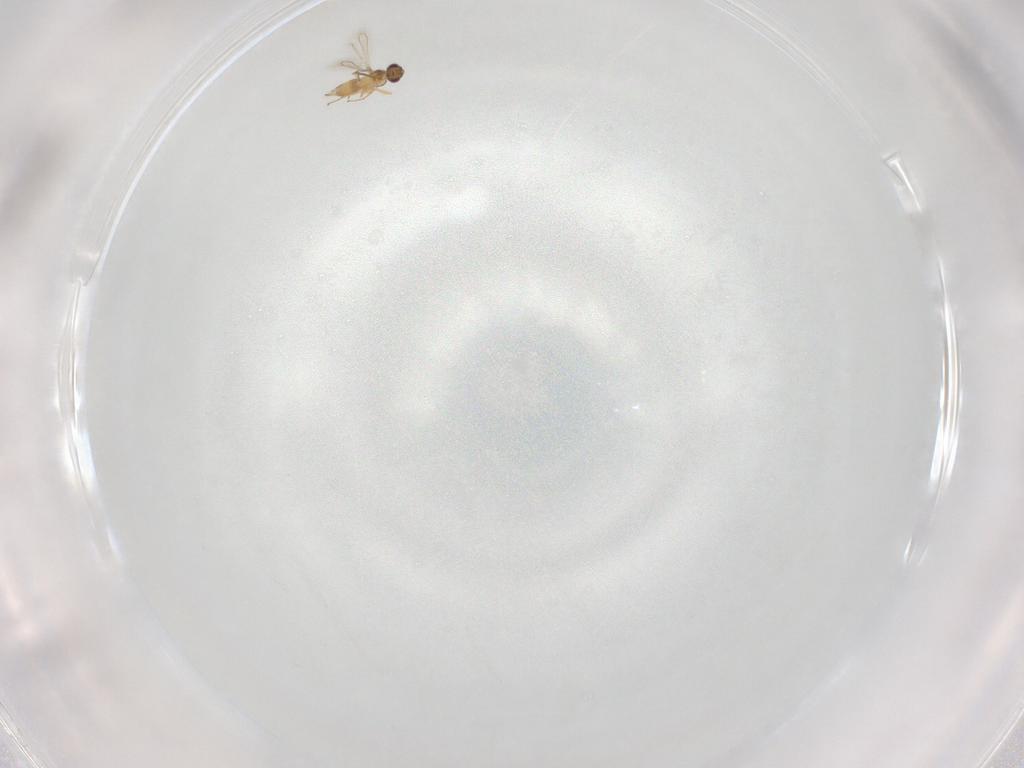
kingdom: Animalia
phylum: Arthropoda
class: Insecta
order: Hymenoptera
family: Mymaridae
